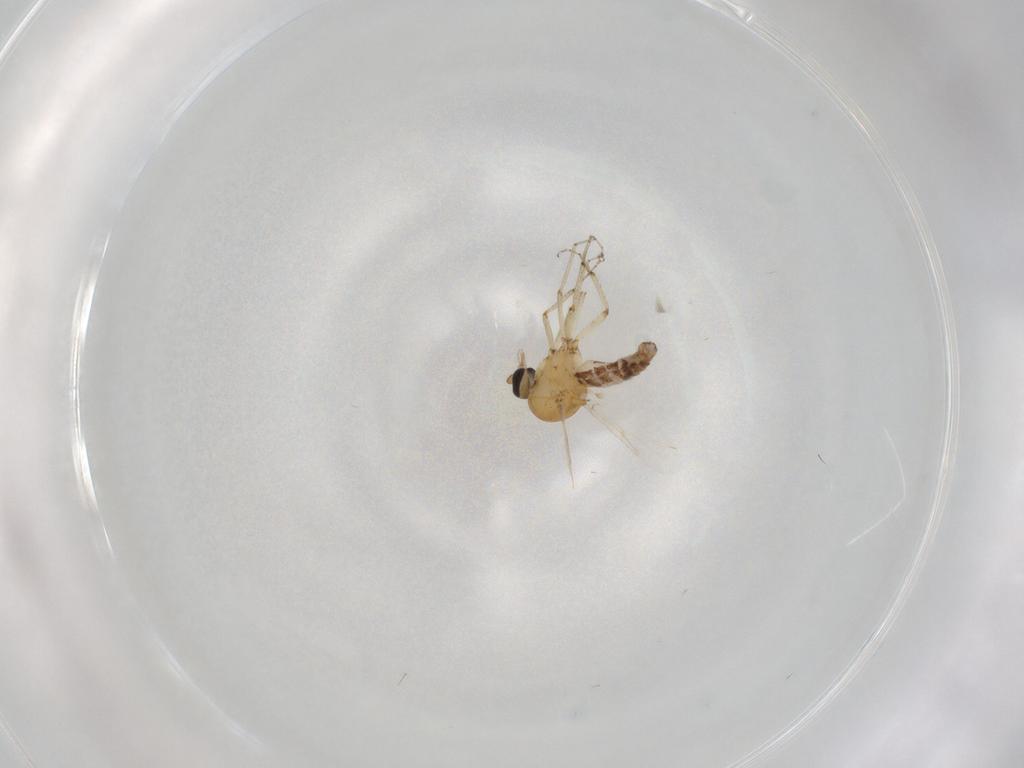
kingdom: Animalia
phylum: Arthropoda
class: Insecta
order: Diptera
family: Ceratopogonidae
